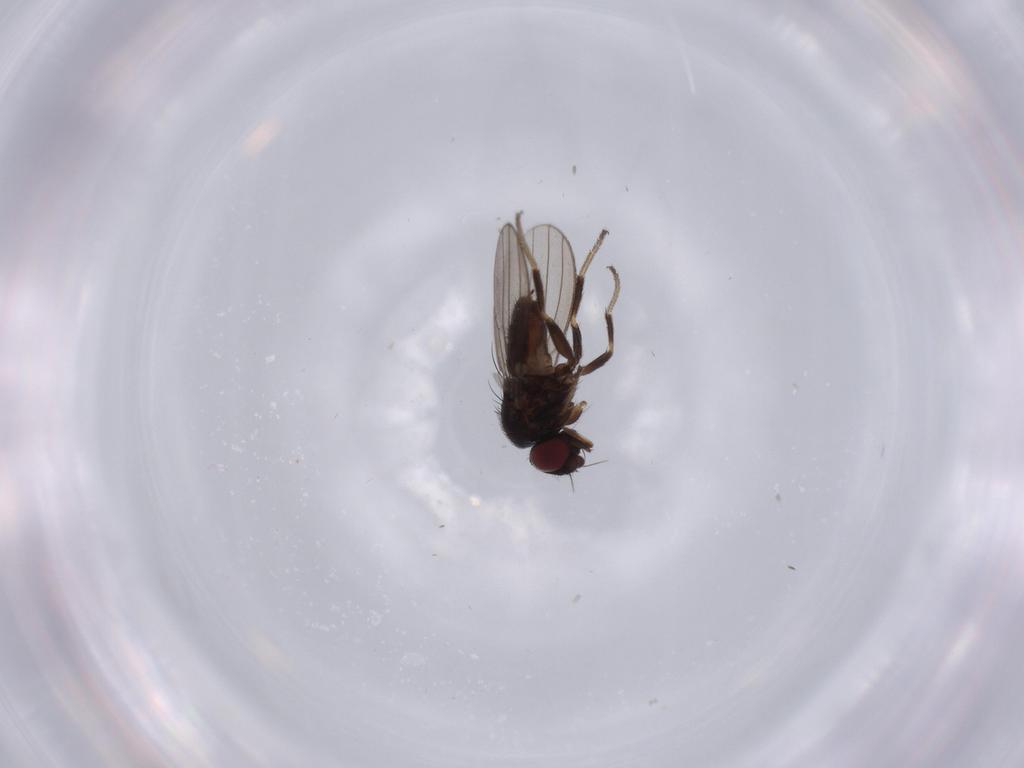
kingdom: Animalia
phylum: Arthropoda
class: Insecta
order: Diptera
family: Milichiidae
